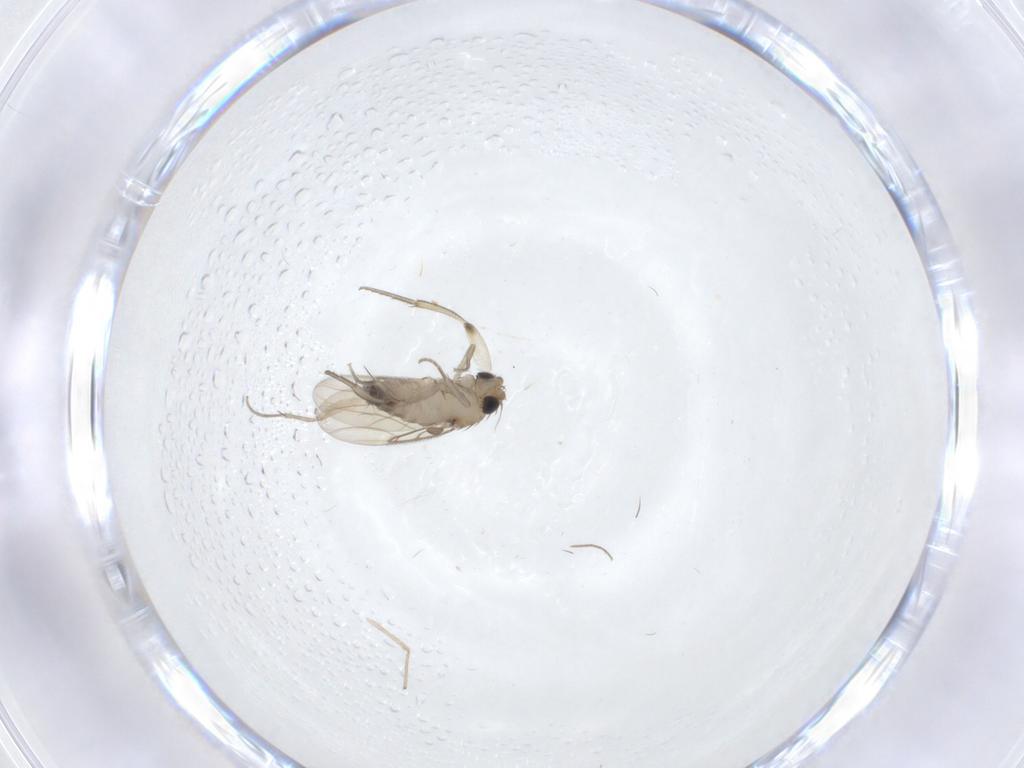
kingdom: Animalia
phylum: Arthropoda
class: Insecta
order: Diptera
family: Phoridae
